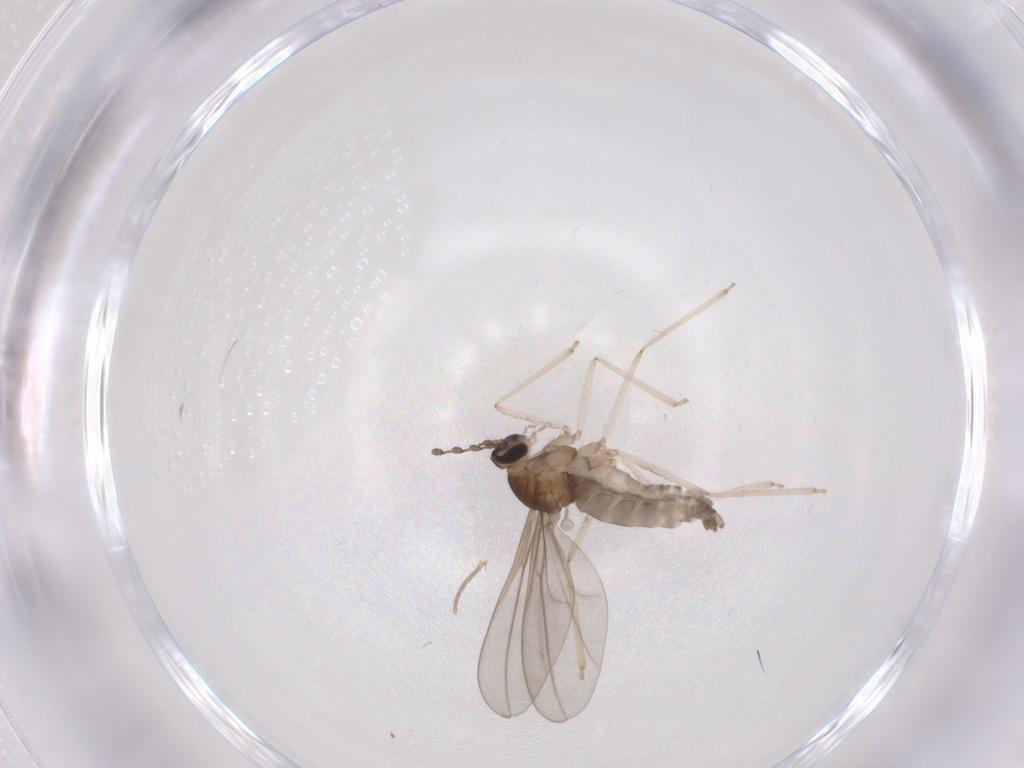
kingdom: Animalia
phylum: Arthropoda
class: Insecta
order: Diptera
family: Phoridae
